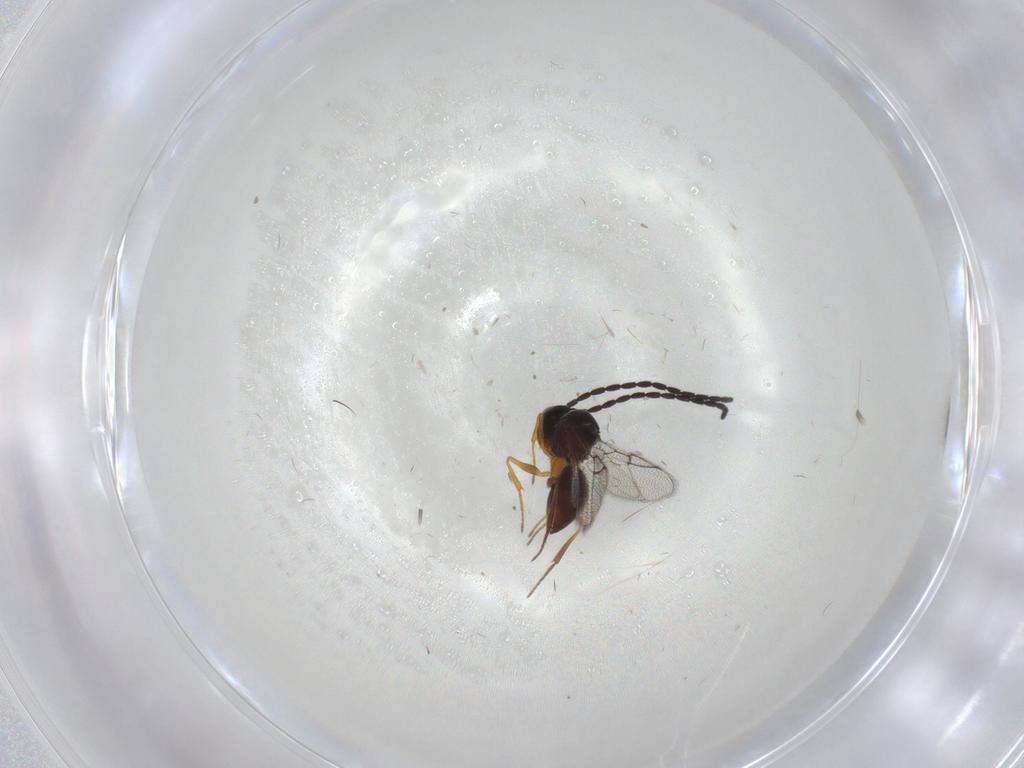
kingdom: Animalia
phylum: Arthropoda
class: Insecta
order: Hymenoptera
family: Figitidae
